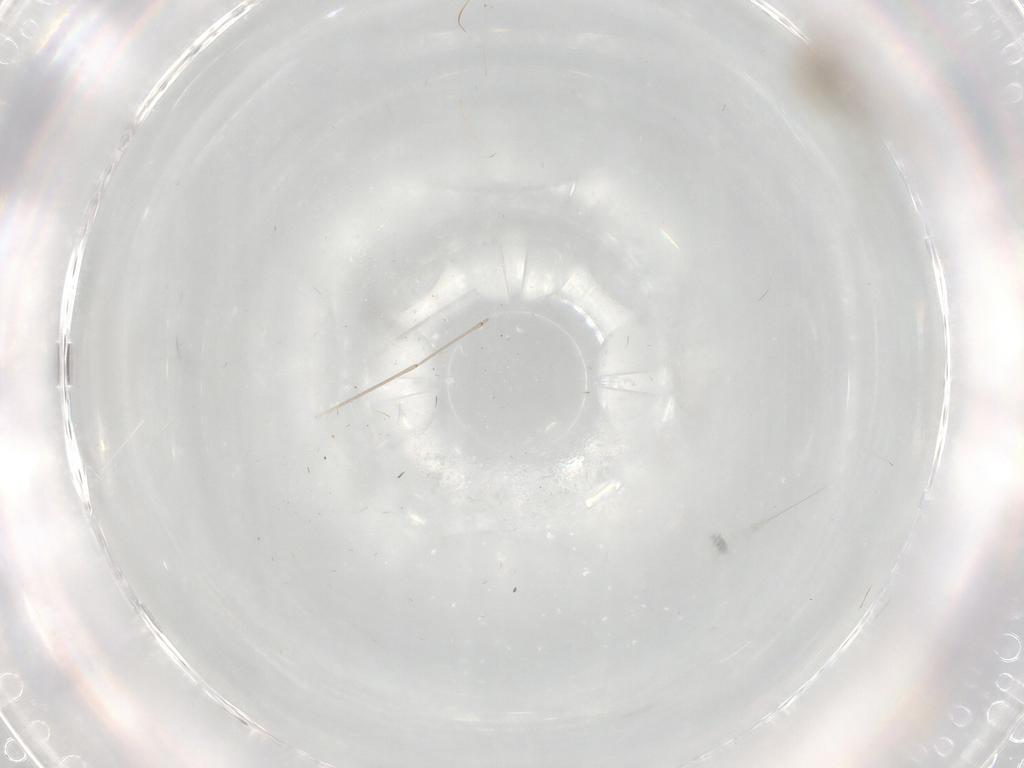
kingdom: Animalia
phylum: Arthropoda
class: Insecta
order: Diptera
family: Cecidomyiidae
